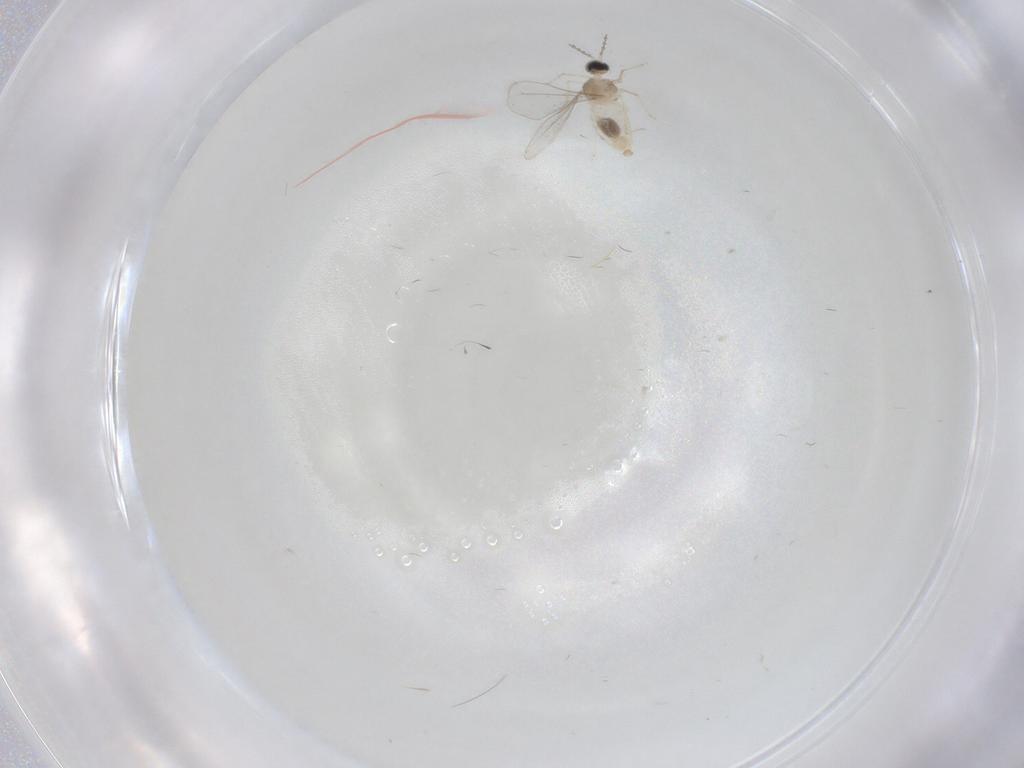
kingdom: Animalia
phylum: Arthropoda
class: Insecta
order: Diptera
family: Cecidomyiidae
